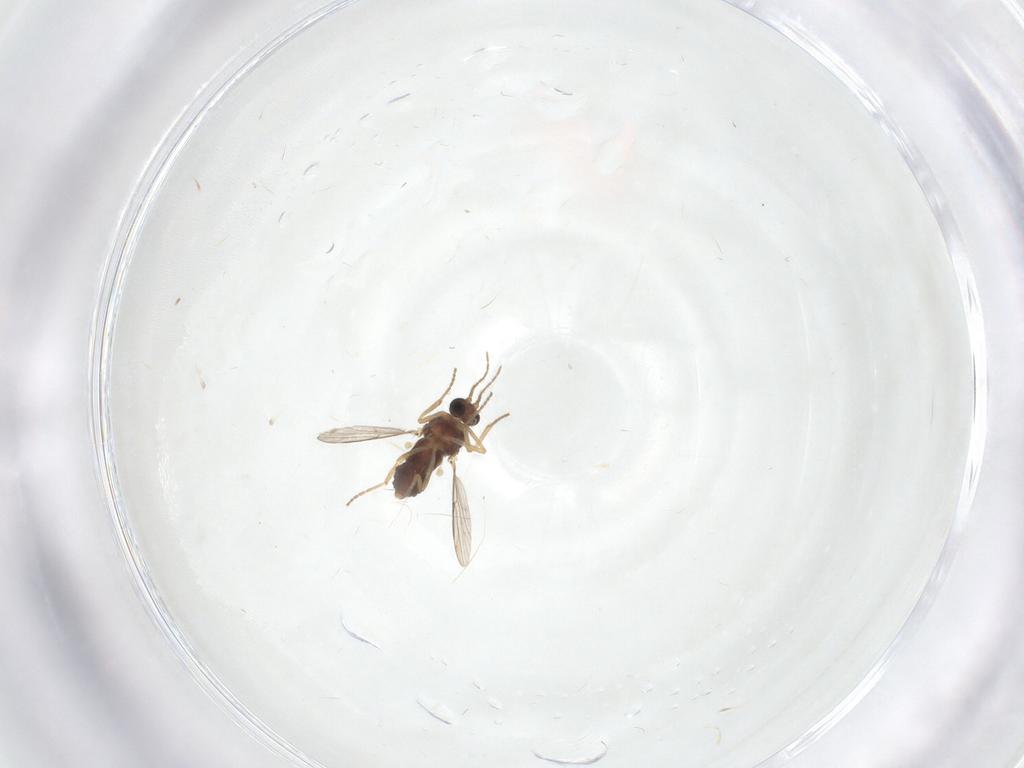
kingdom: Animalia
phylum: Arthropoda
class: Insecta
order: Diptera
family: Ceratopogonidae
